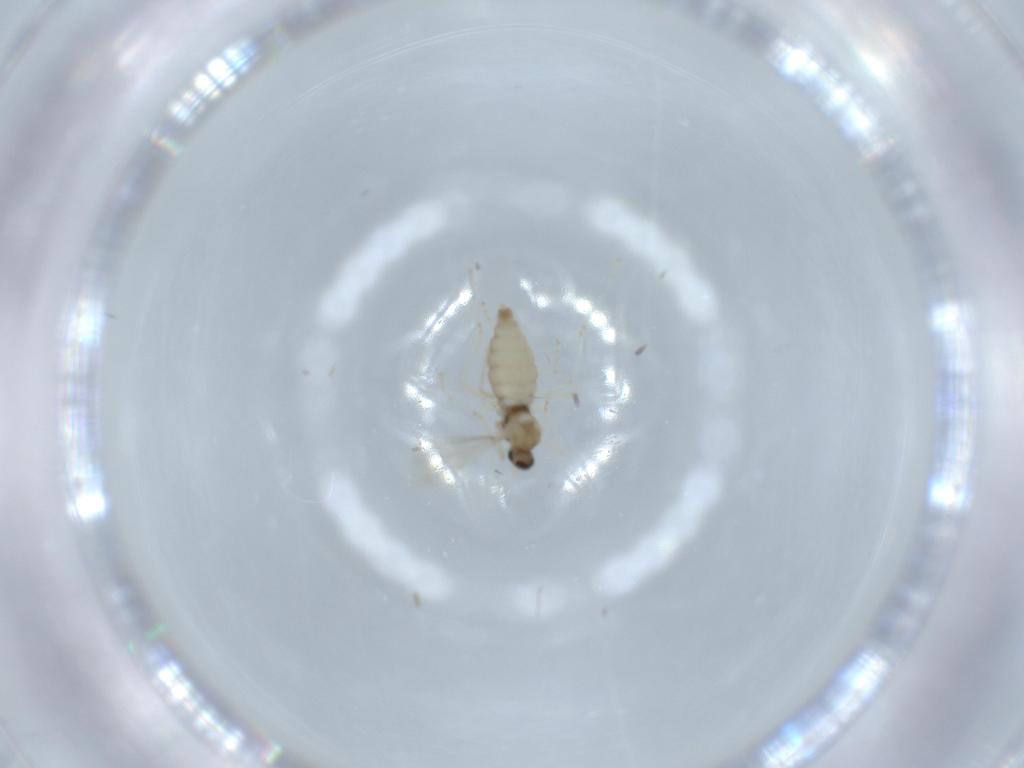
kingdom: Animalia
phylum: Arthropoda
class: Insecta
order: Diptera
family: Cecidomyiidae
